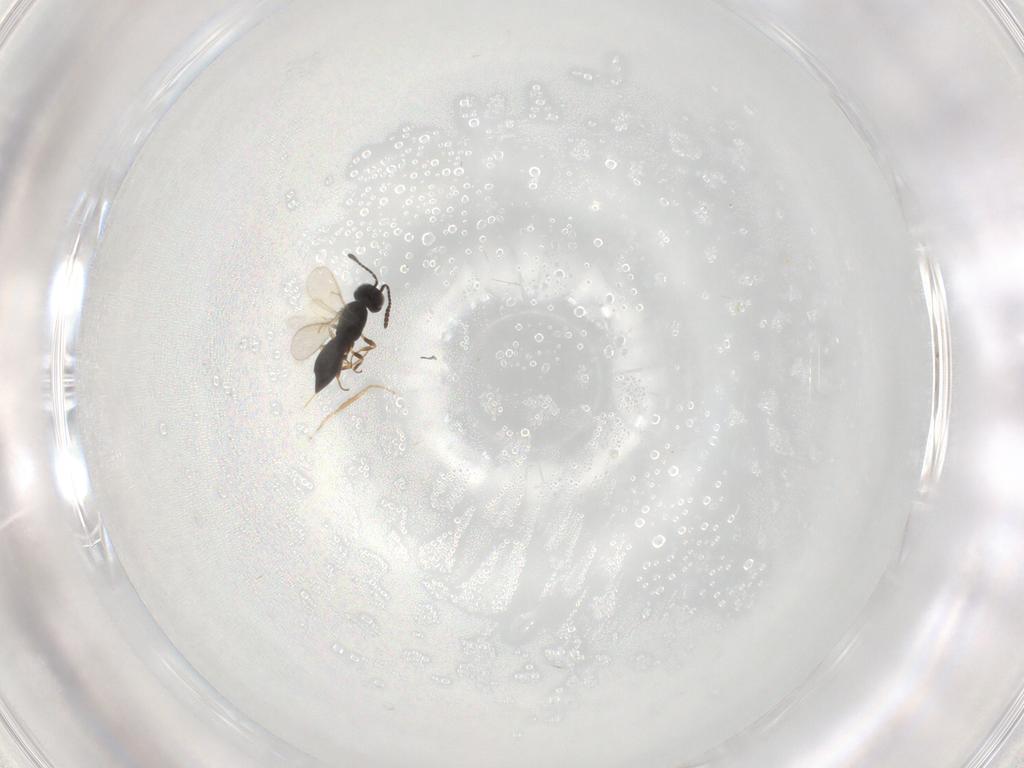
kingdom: Animalia
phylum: Arthropoda
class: Insecta
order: Hymenoptera
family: Scelionidae
